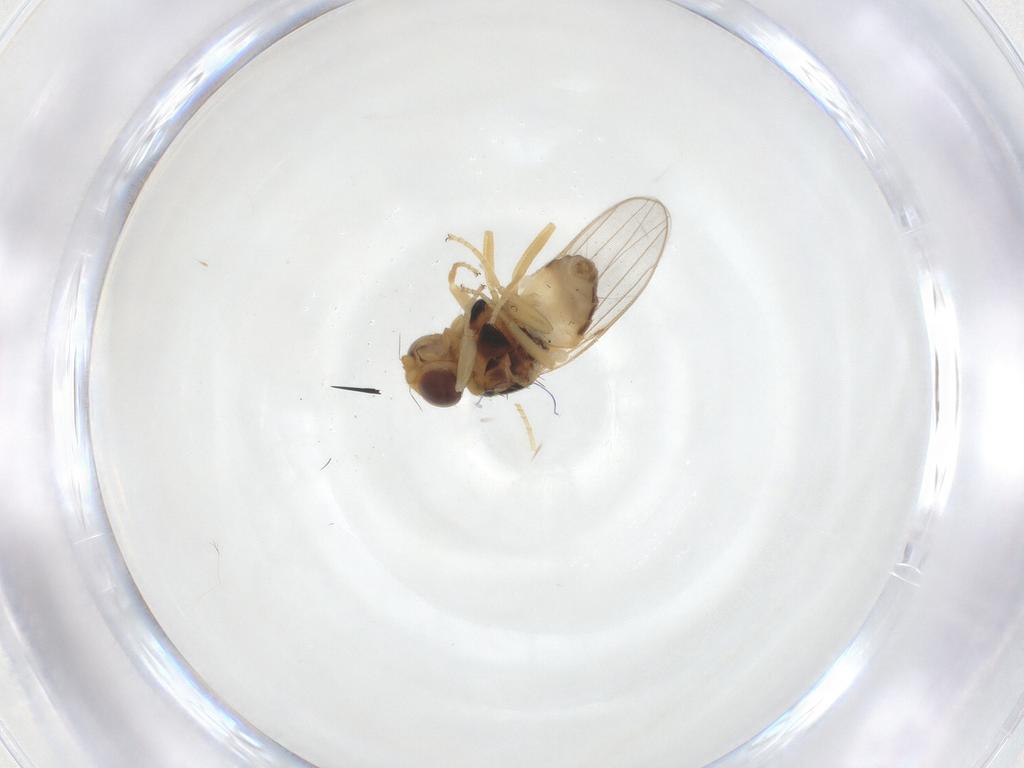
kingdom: Animalia
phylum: Arthropoda
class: Insecta
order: Diptera
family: Chloropidae
